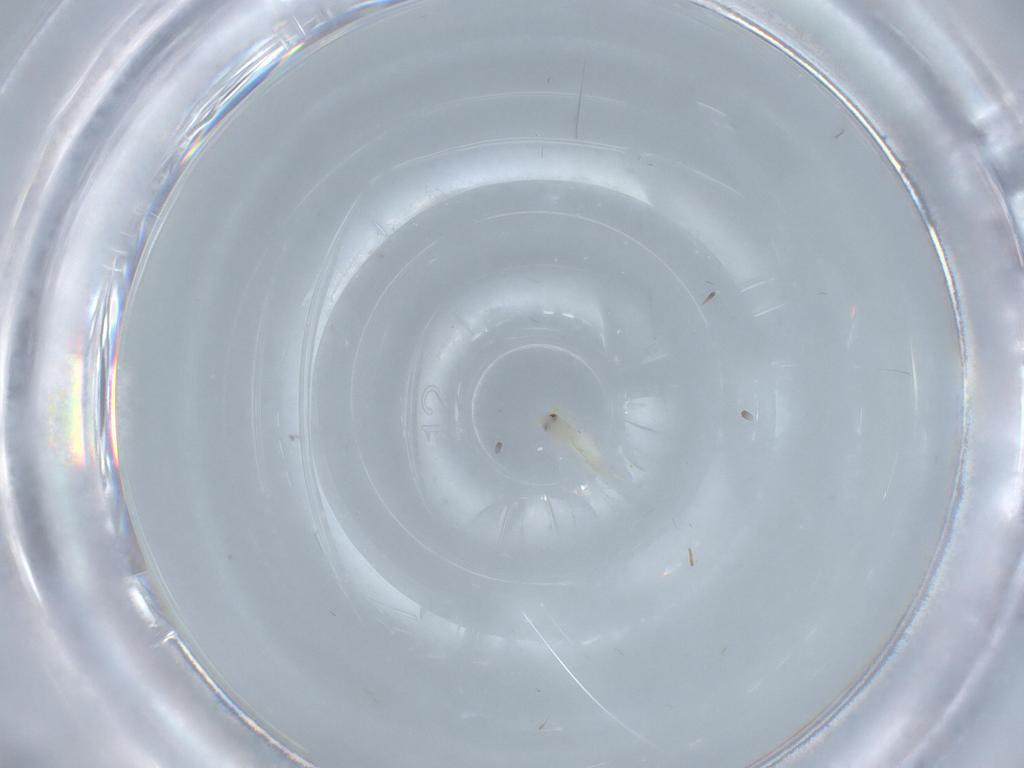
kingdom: Animalia
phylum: Arthropoda
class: Insecta
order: Hemiptera
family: Aleyrodidae
